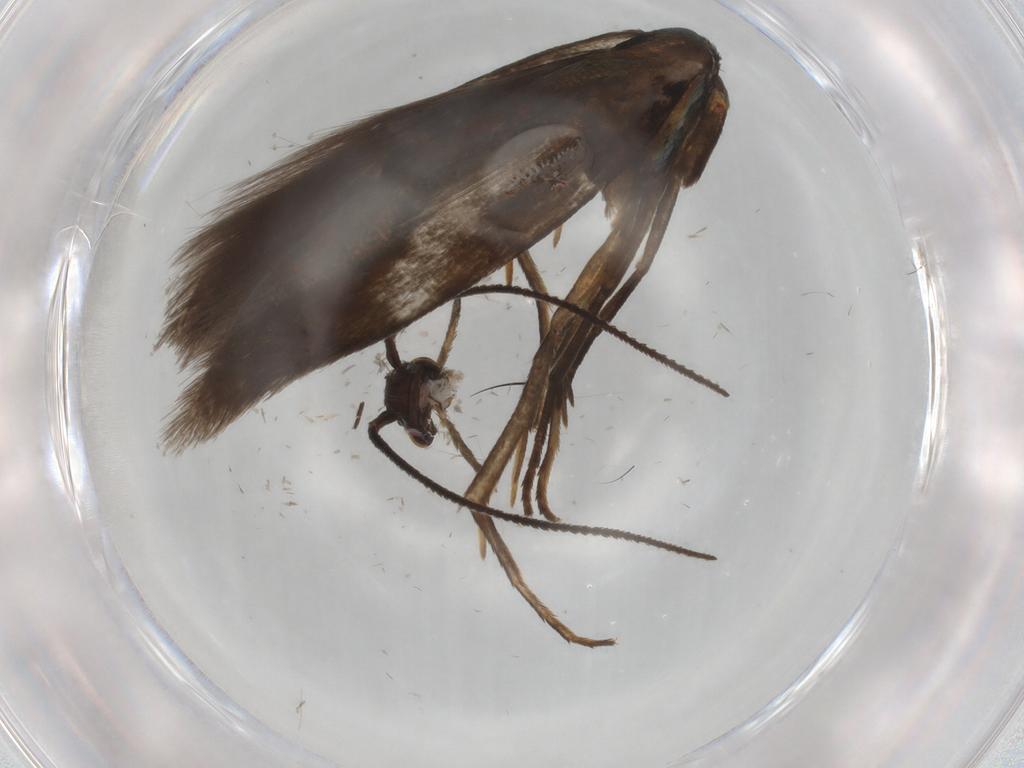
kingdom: Animalia
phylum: Arthropoda
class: Insecta
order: Lepidoptera
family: Argyresthiidae
